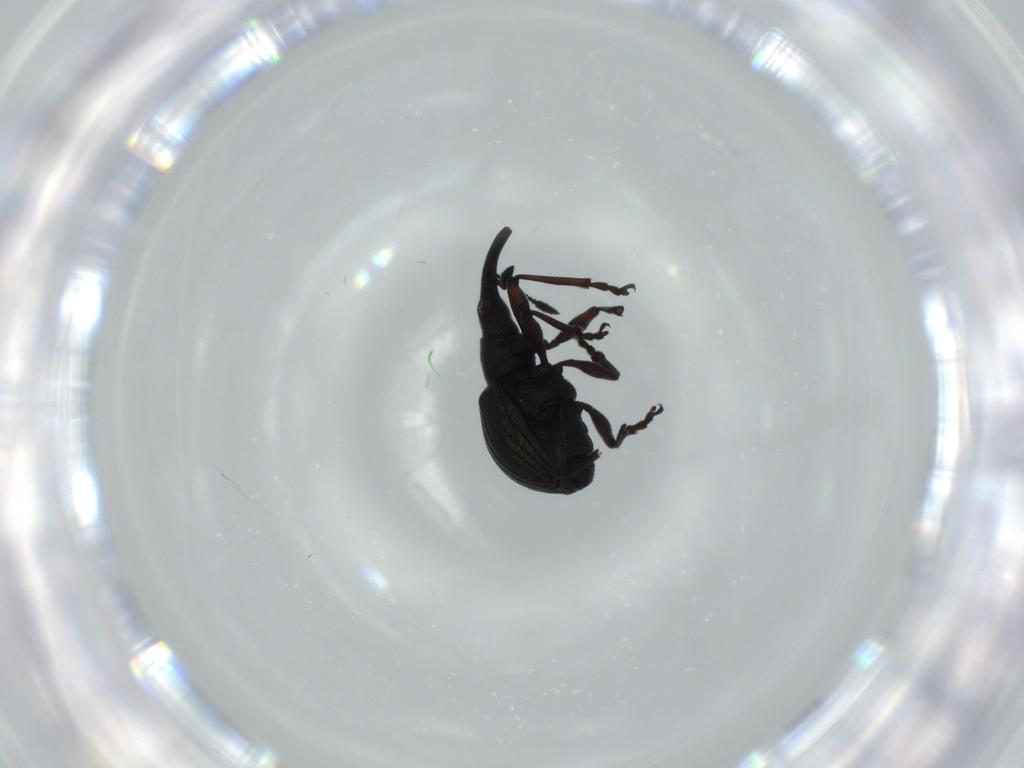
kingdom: Animalia
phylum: Arthropoda
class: Insecta
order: Coleoptera
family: Brentidae
